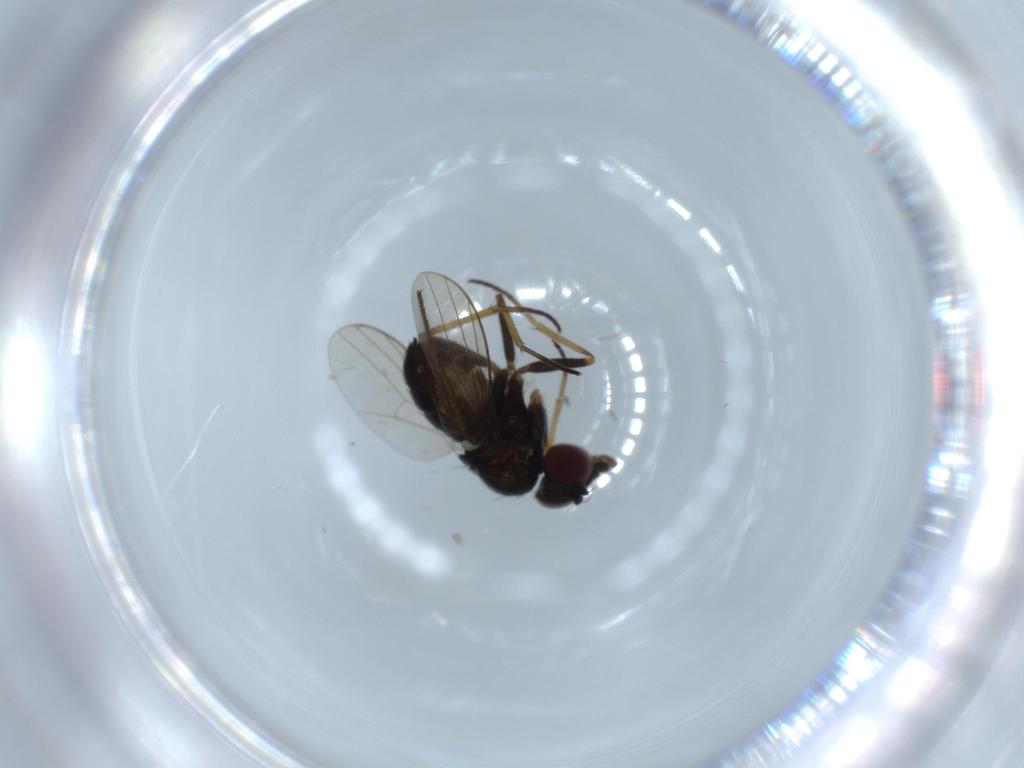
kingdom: Animalia
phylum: Arthropoda
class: Insecta
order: Diptera
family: Dolichopodidae
